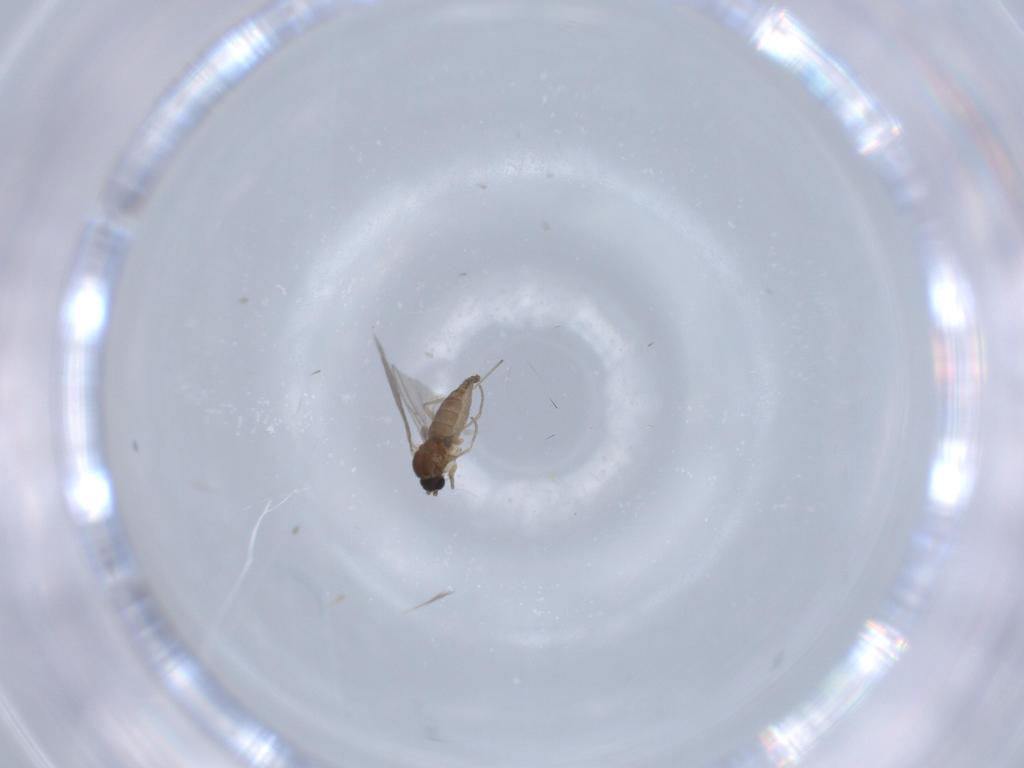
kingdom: Animalia
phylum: Arthropoda
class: Insecta
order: Diptera
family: Sciaridae
